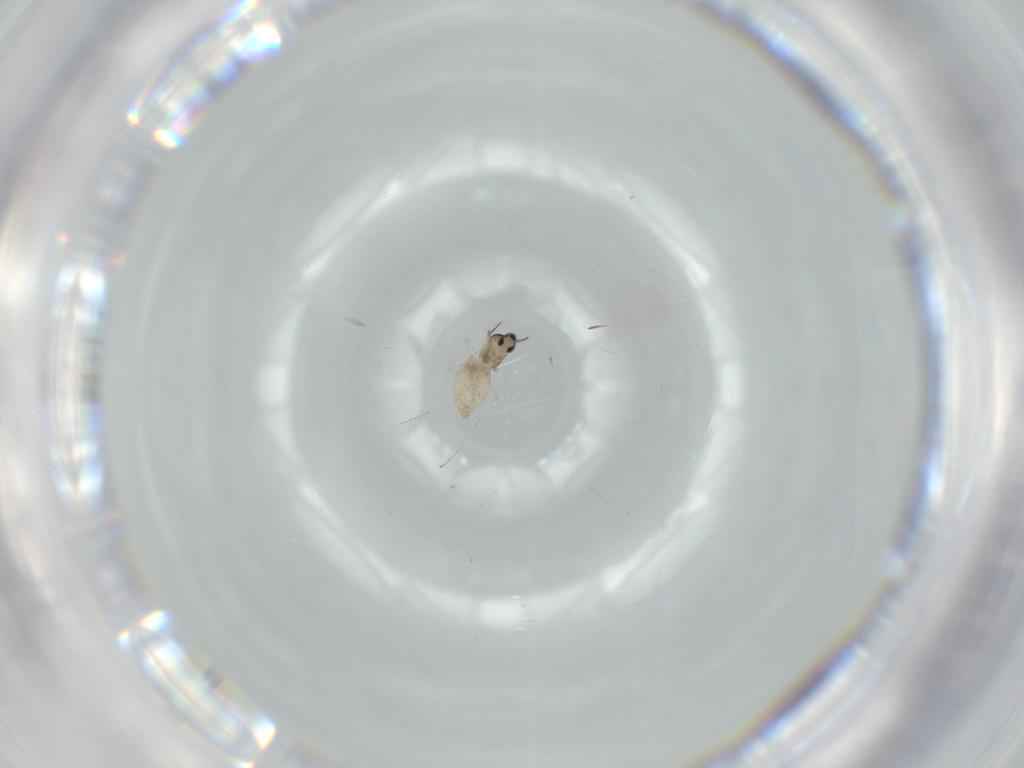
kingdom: Animalia
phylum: Arthropoda
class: Insecta
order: Diptera
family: Cecidomyiidae
